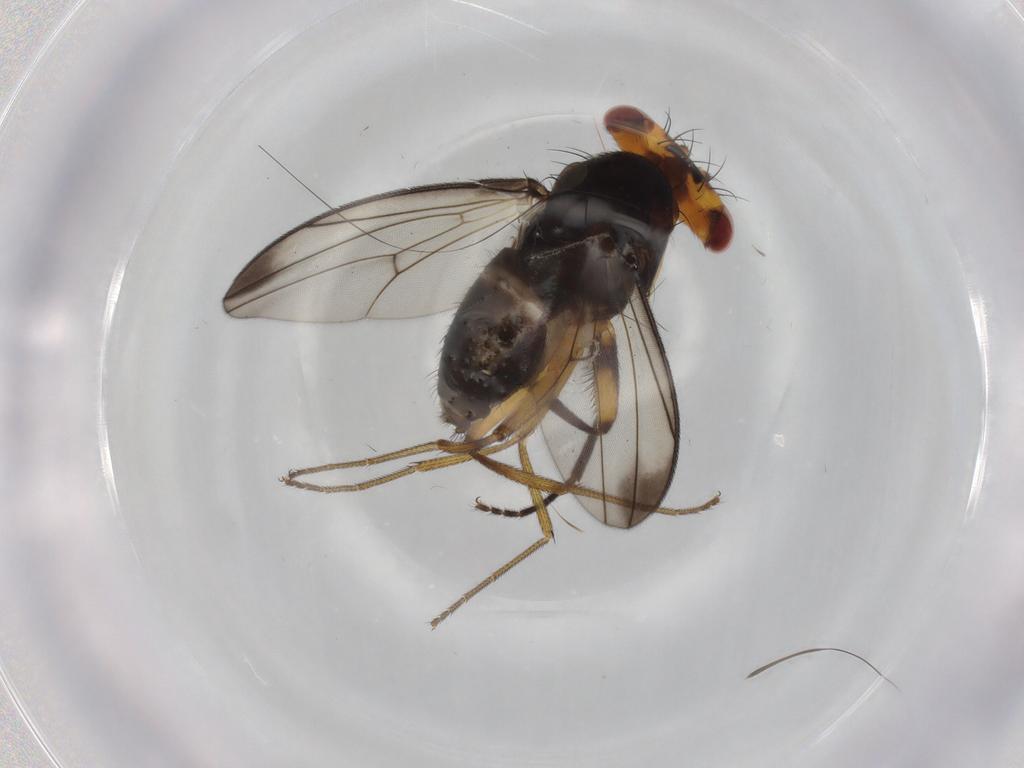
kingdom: Animalia
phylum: Arthropoda
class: Insecta
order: Diptera
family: Drosophilidae
